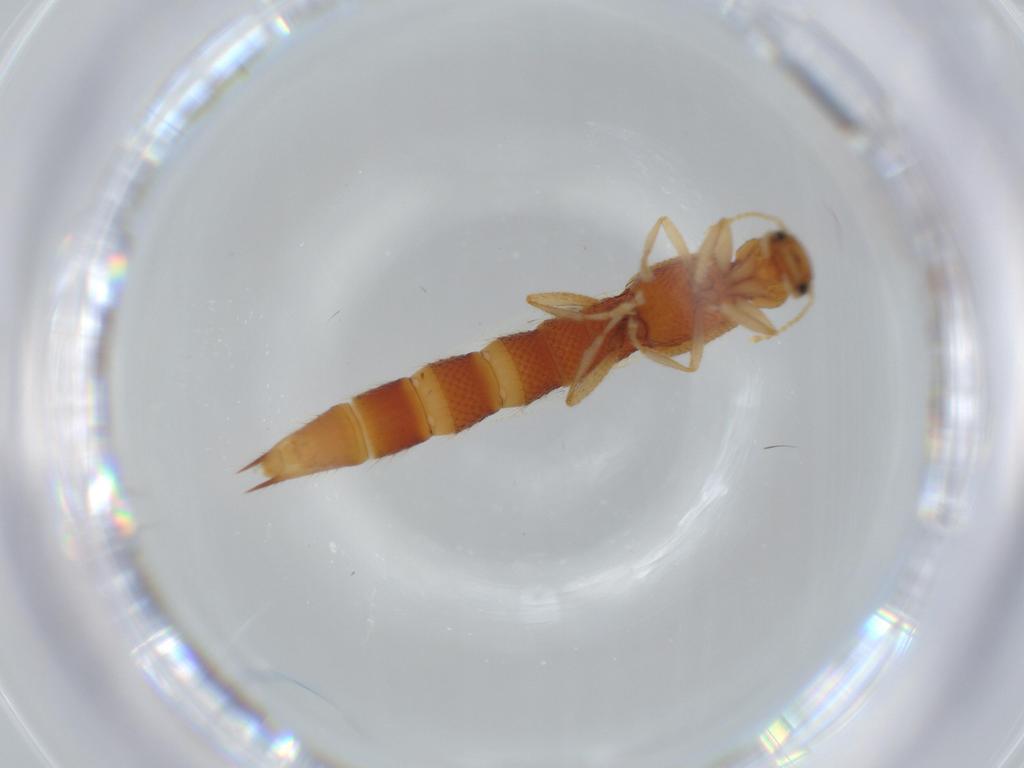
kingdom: Animalia
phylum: Arthropoda
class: Insecta
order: Coleoptera
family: Staphylinidae
